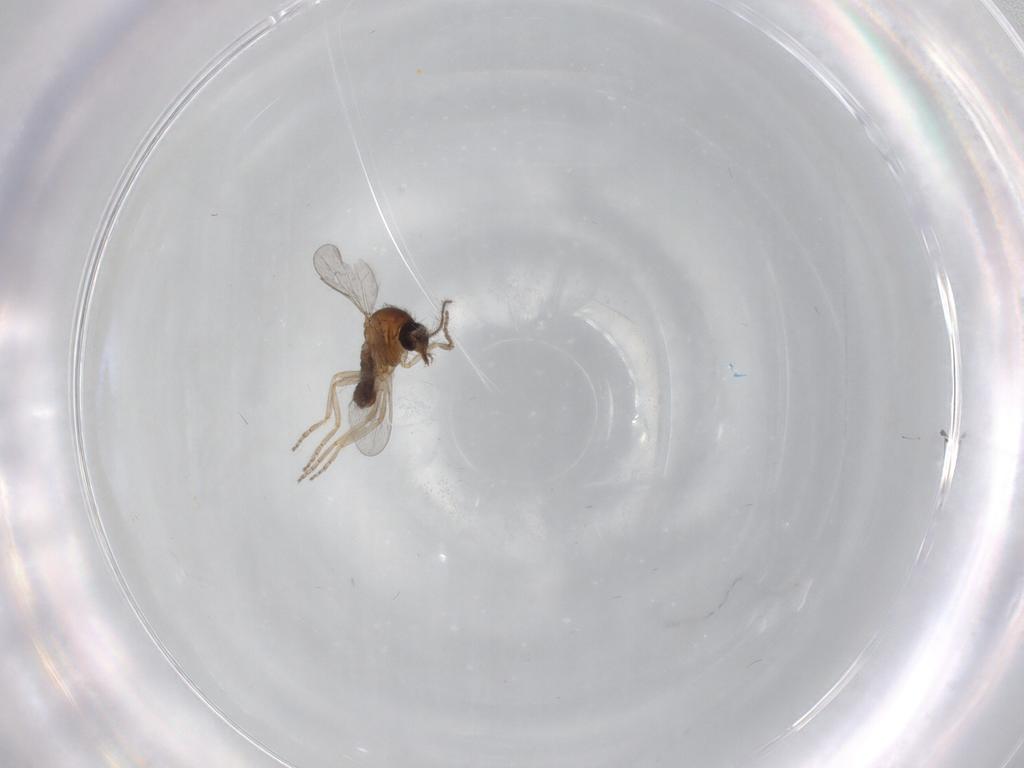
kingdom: Animalia
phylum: Arthropoda
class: Insecta
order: Diptera
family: Ceratopogonidae
